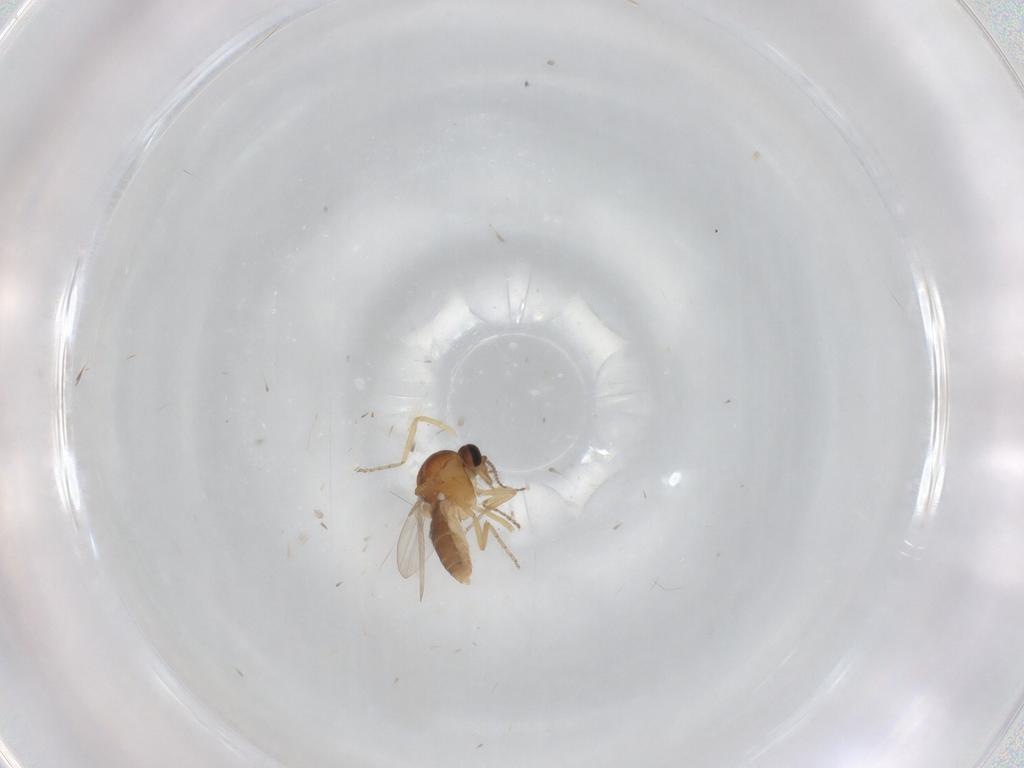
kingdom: Animalia
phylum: Arthropoda
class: Insecta
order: Diptera
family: Ceratopogonidae
